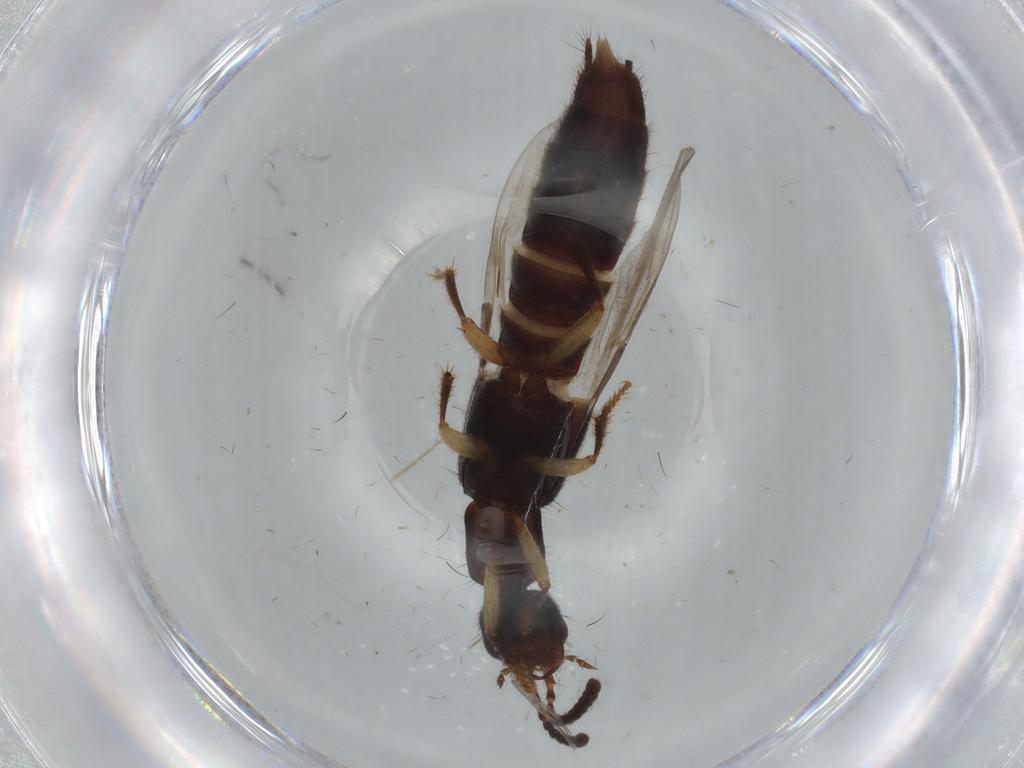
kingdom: Animalia
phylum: Arthropoda
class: Insecta
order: Coleoptera
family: Staphylinidae
